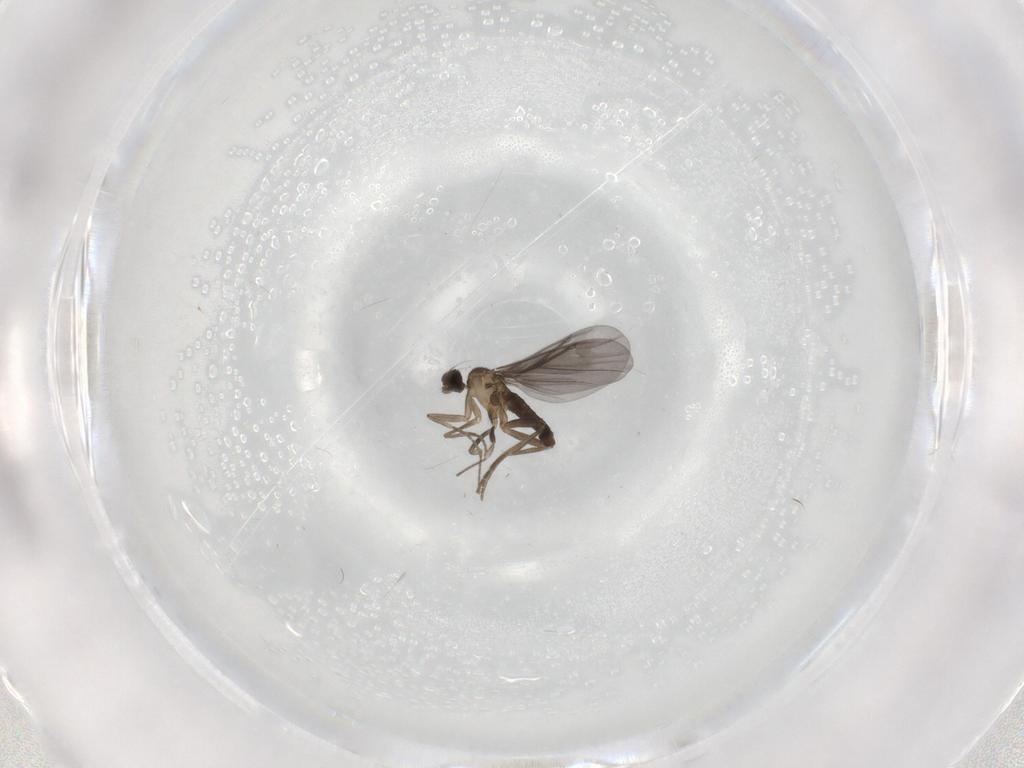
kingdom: Animalia
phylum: Arthropoda
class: Insecta
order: Diptera
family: Phoridae
